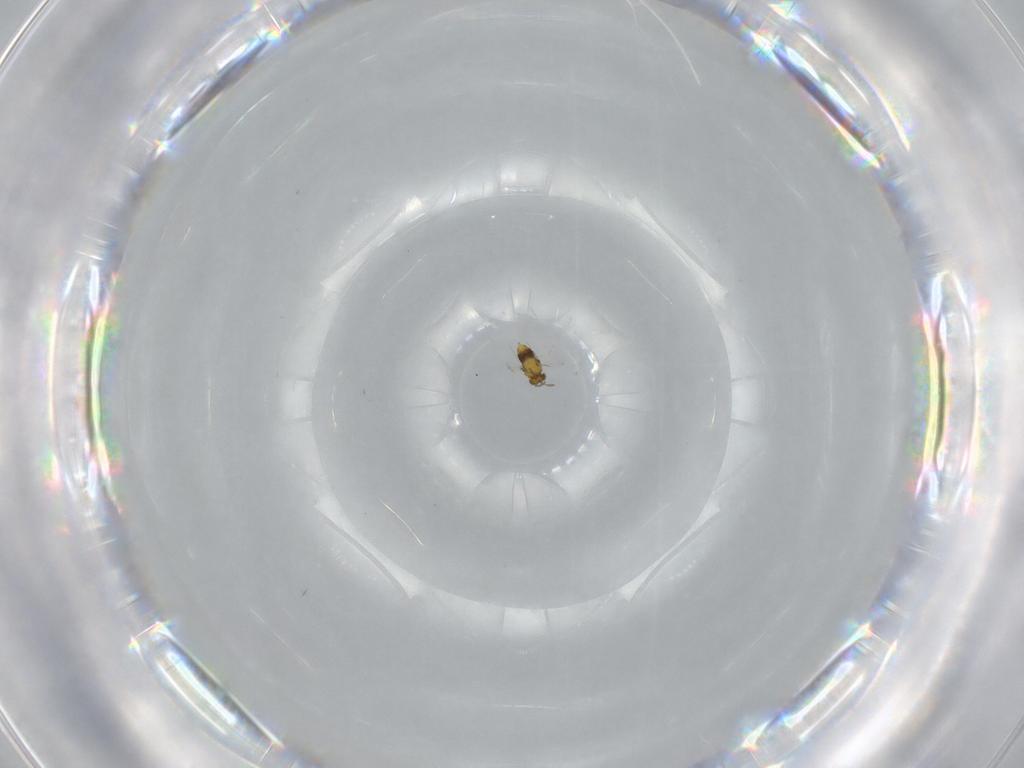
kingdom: Animalia
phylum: Arthropoda
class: Insecta
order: Hymenoptera
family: Aphelinidae
